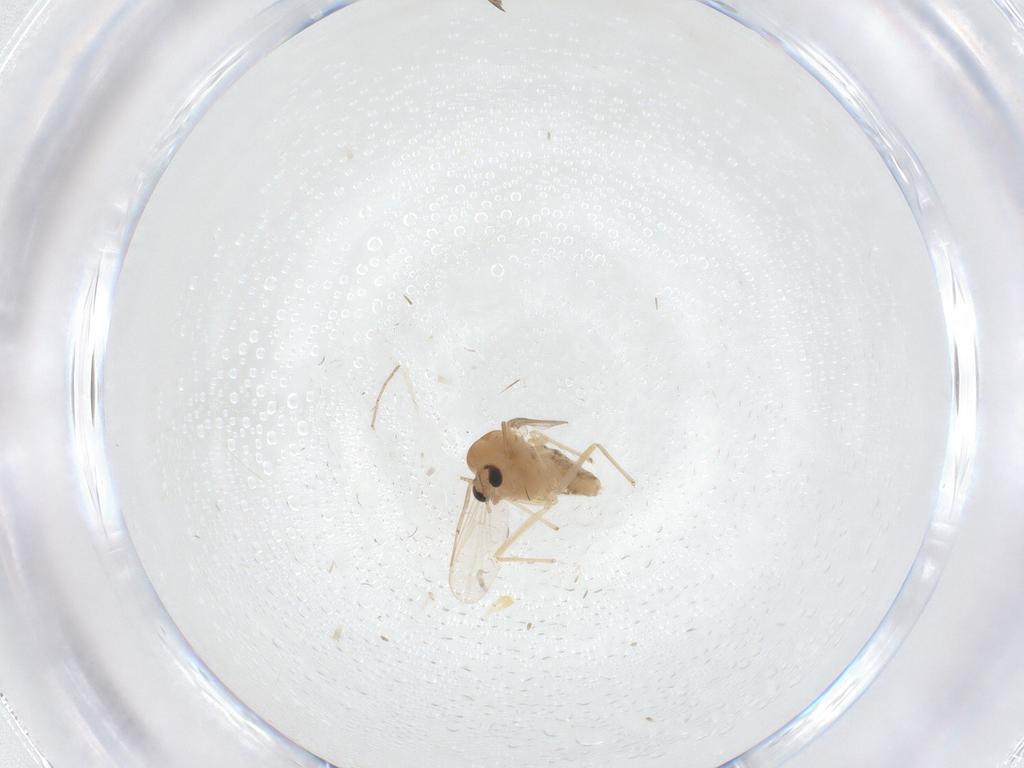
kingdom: Animalia
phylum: Arthropoda
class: Insecta
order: Diptera
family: Chironomidae
